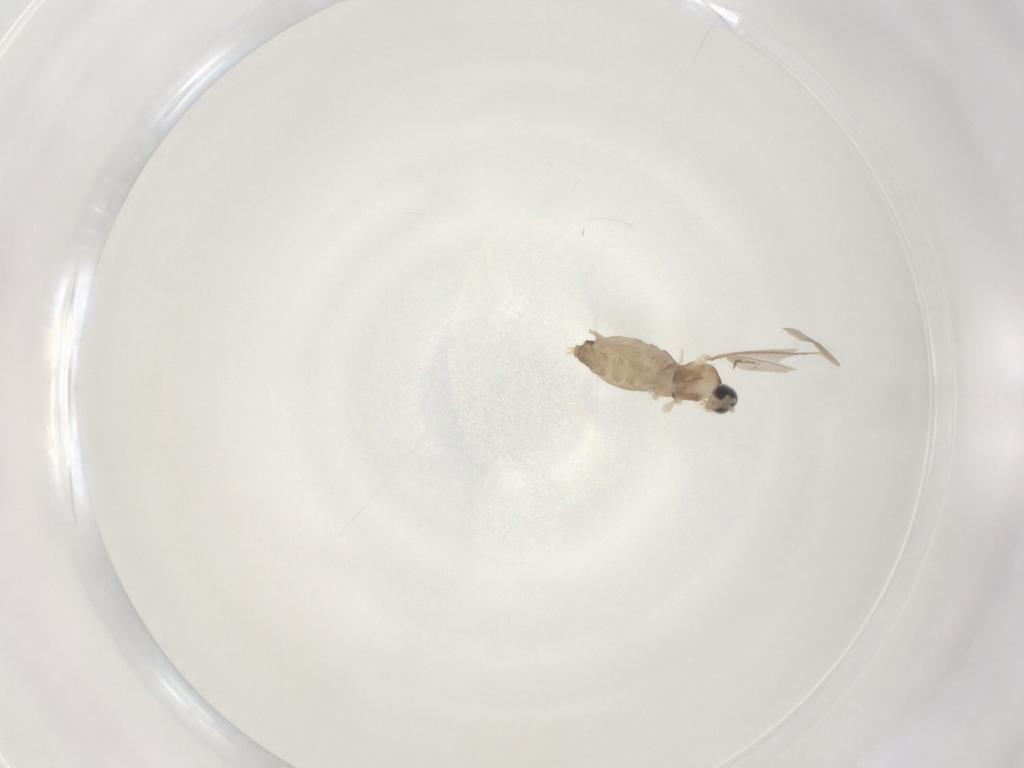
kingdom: Animalia
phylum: Arthropoda
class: Insecta
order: Diptera
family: Cecidomyiidae
